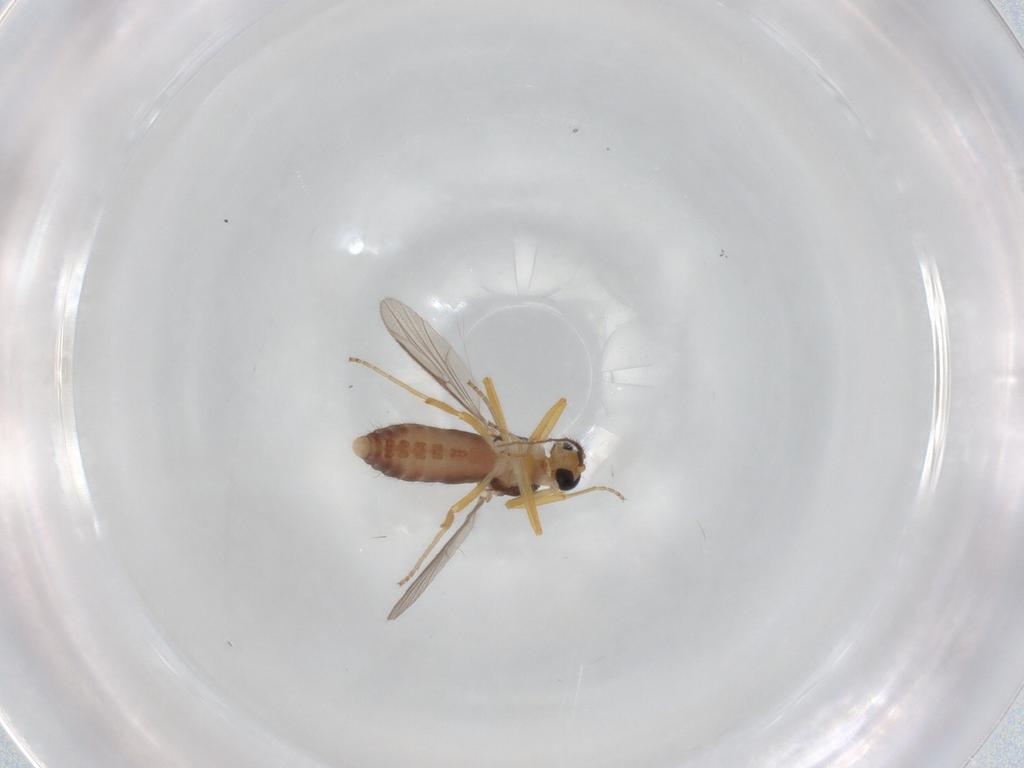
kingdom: Animalia
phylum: Arthropoda
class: Insecta
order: Diptera
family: Ceratopogonidae
